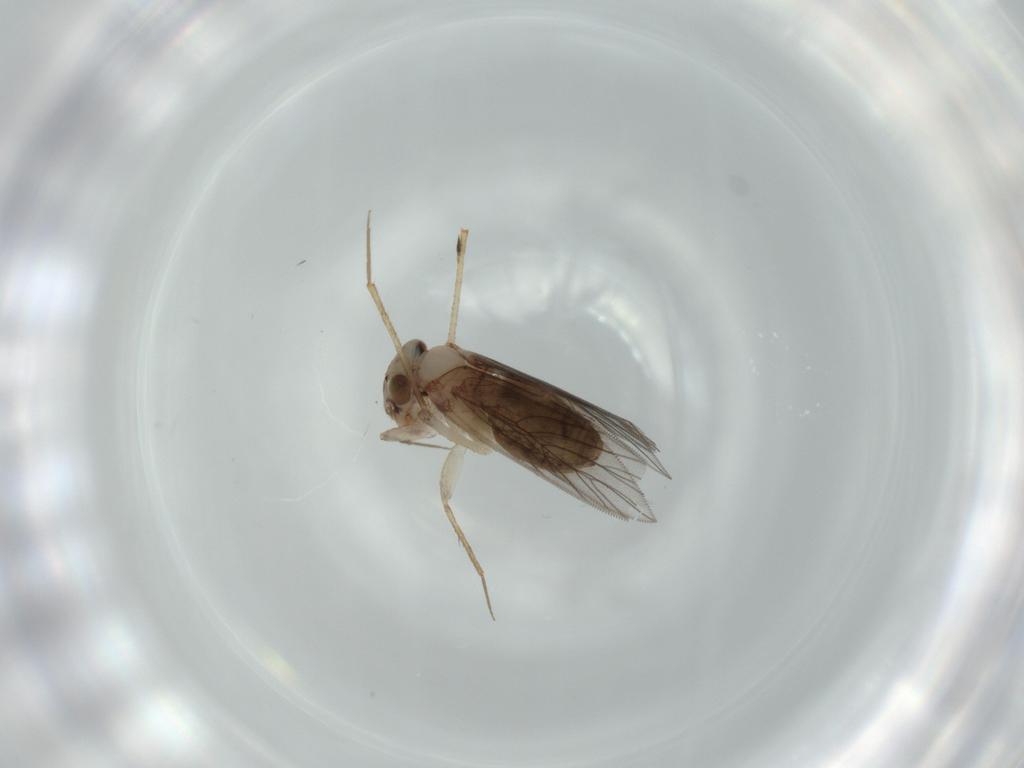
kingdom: Animalia
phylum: Arthropoda
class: Insecta
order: Psocodea
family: Lepidopsocidae
